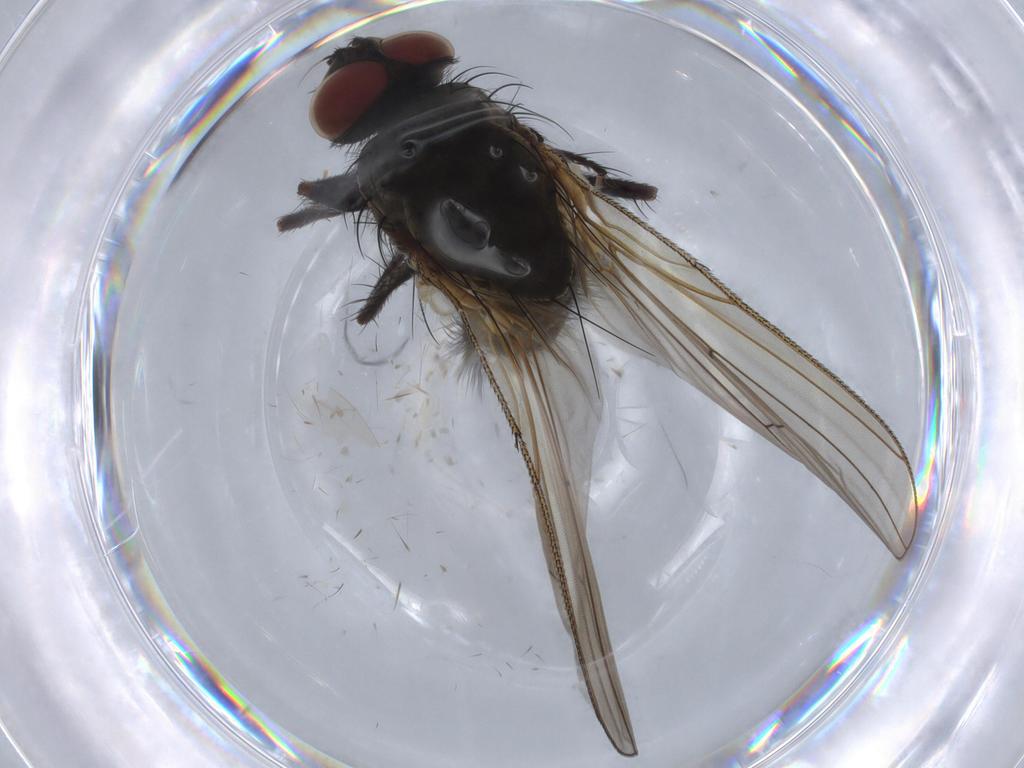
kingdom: Animalia
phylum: Arthropoda
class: Insecta
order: Diptera
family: Anthomyiidae
